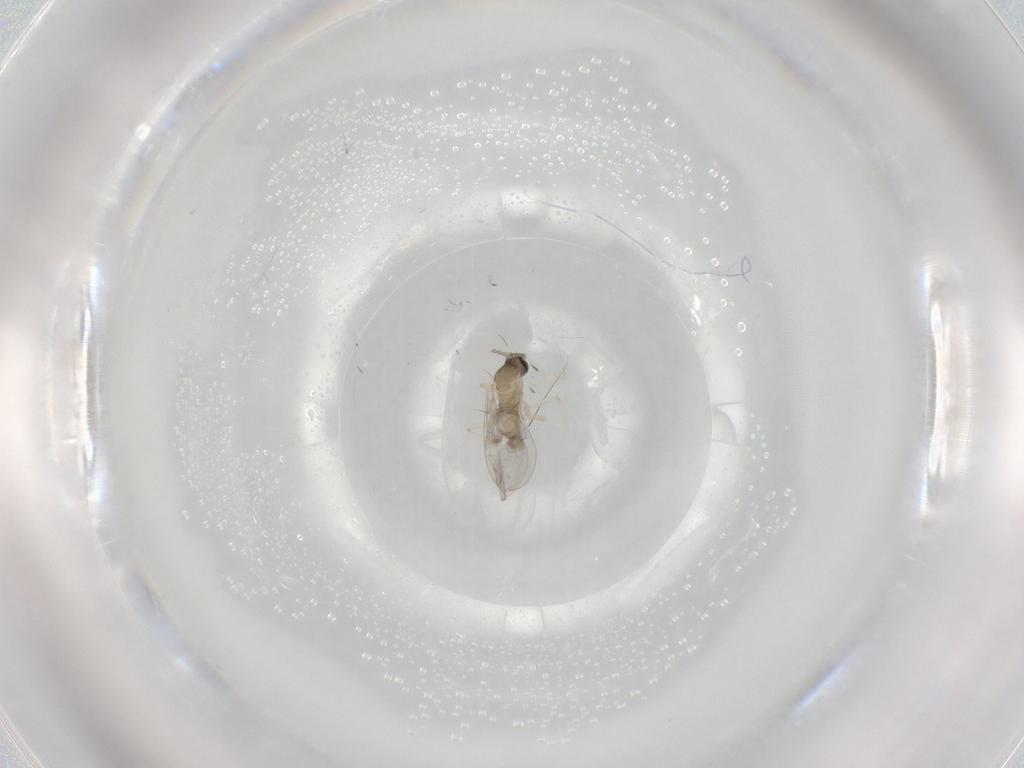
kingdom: Animalia
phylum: Arthropoda
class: Insecta
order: Diptera
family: Cecidomyiidae
